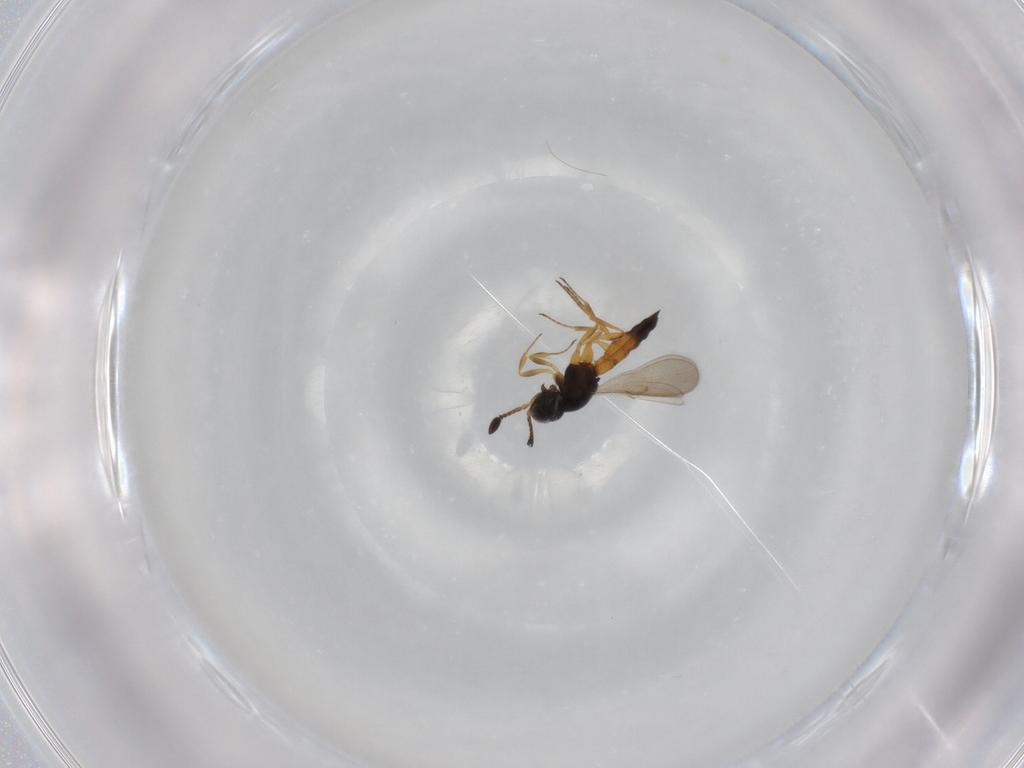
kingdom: Animalia
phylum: Arthropoda
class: Insecta
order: Hymenoptera
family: Scelionidae
